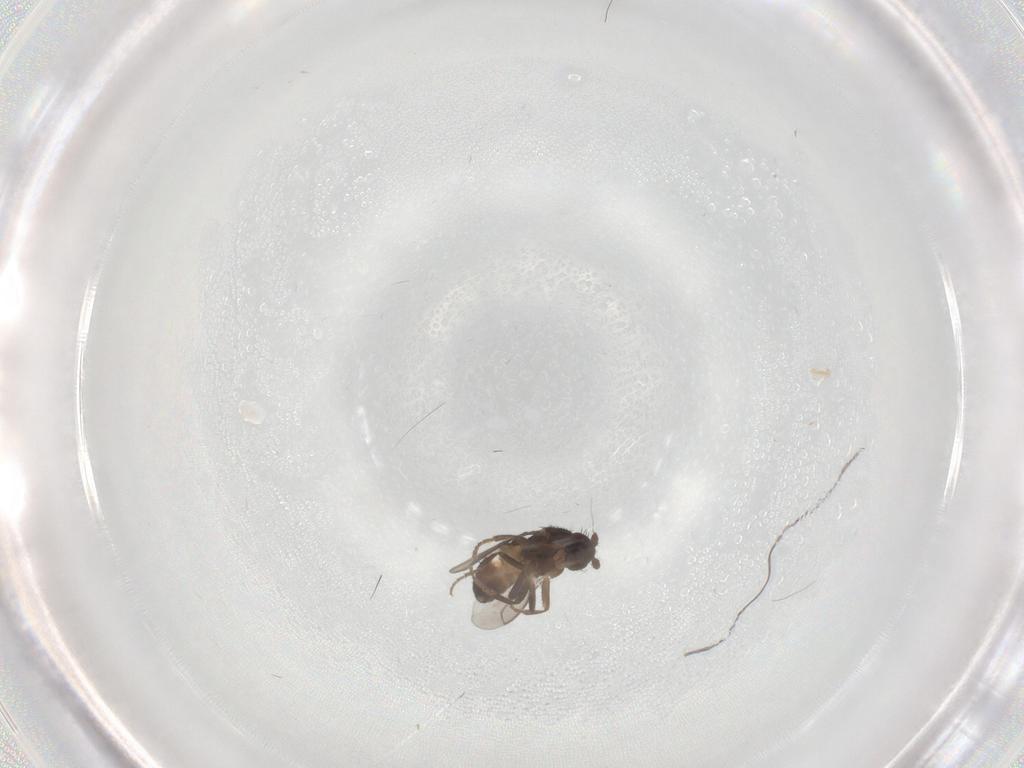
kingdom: Animalia
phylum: Arthropoda
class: Insecta
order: Diptera
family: Sphaeroceridae
